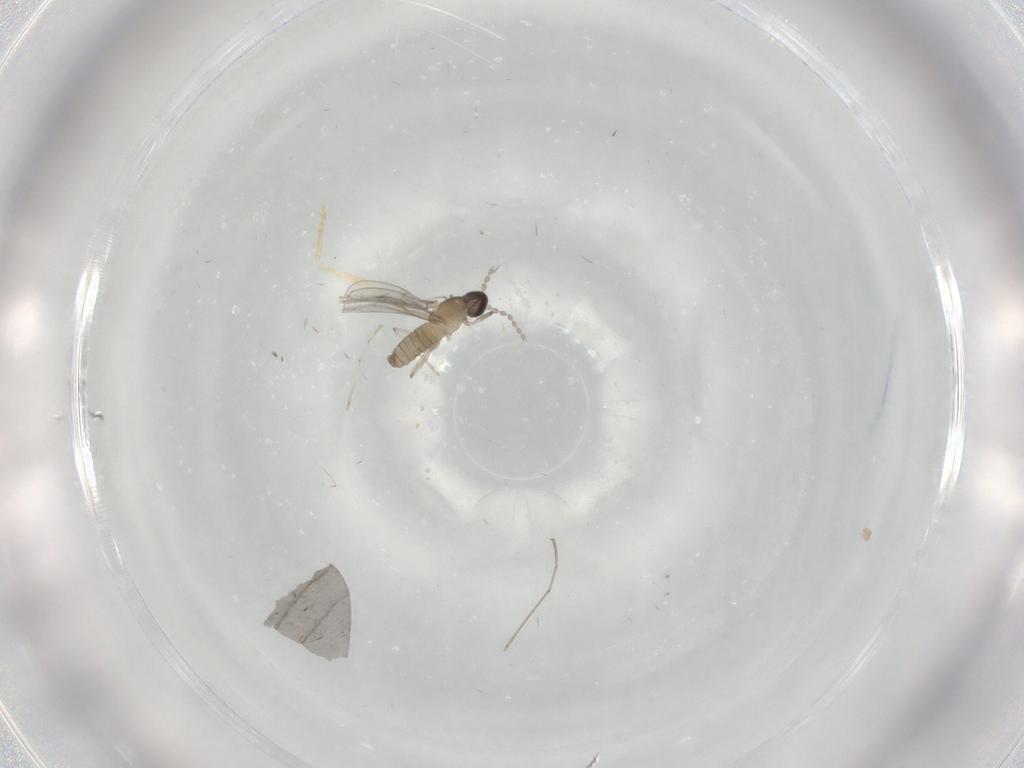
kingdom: Animalia
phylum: Arthropoda
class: Insecta
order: Diptera
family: Cecidomyiidae
